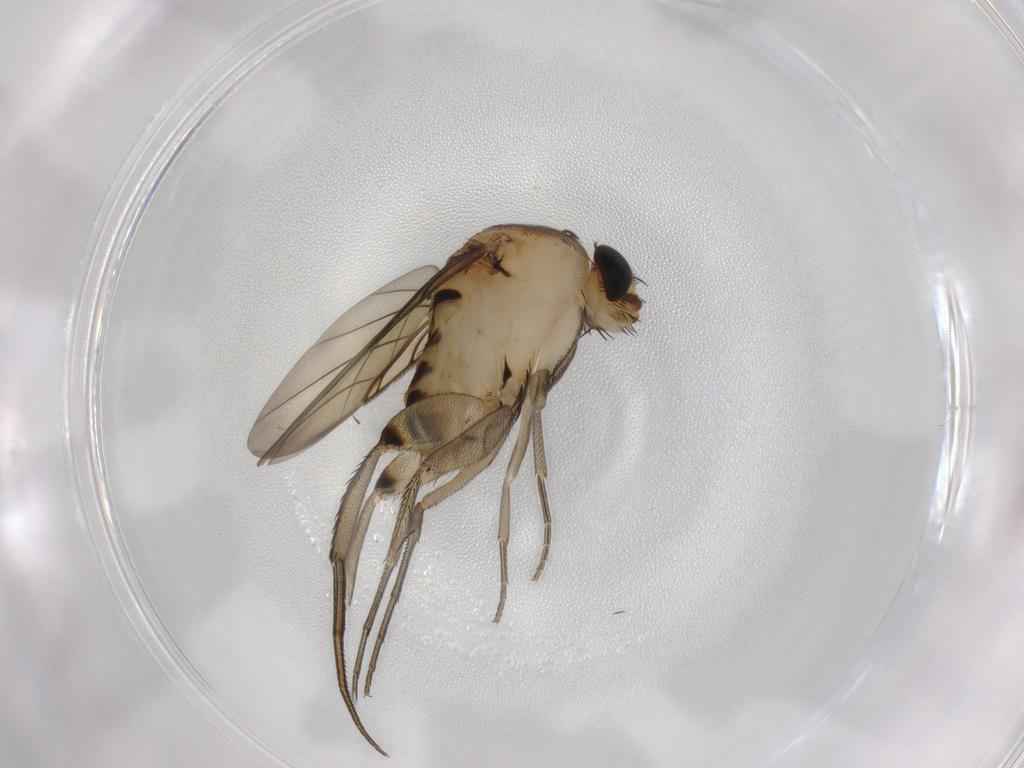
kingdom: Animalia
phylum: Arthropoda
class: Insecta
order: Diptera
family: Phoridae
